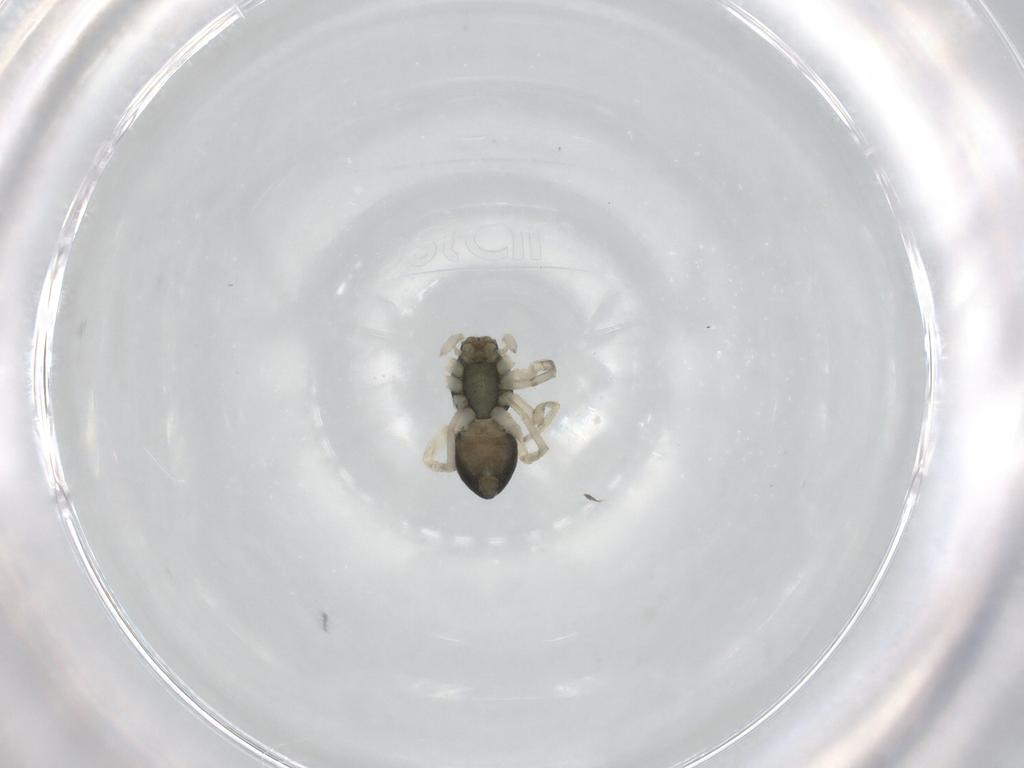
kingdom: Animalia
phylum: Arthropoda
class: Arachnida
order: Araneae
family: Trachelidae
